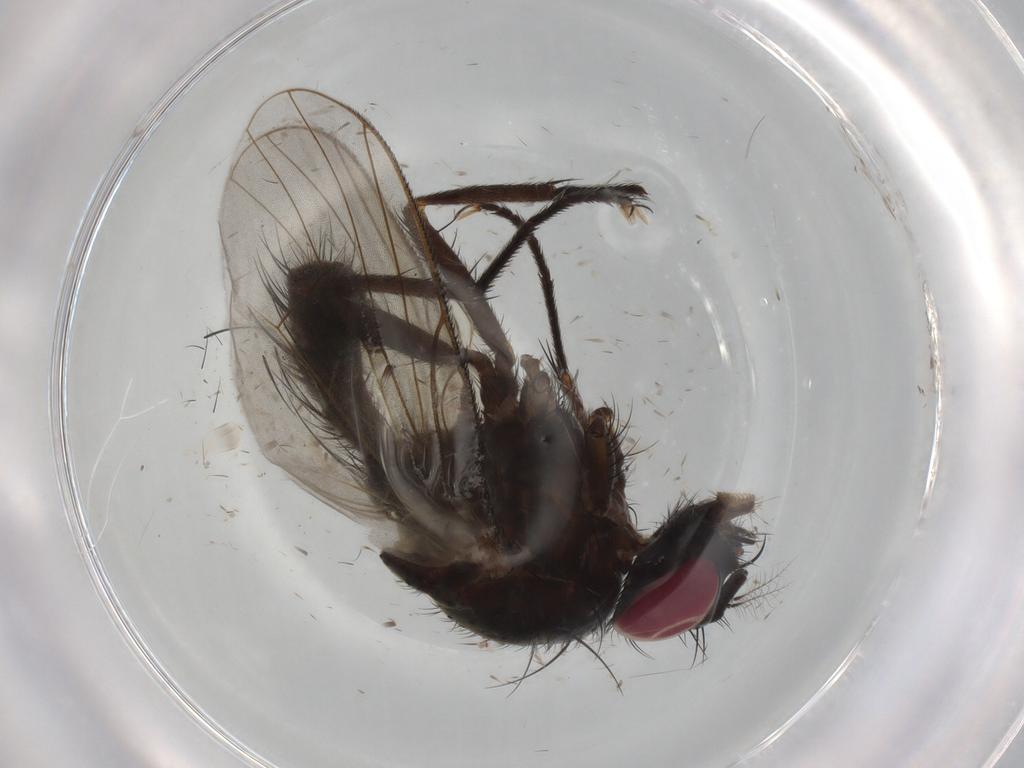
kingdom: Animalia
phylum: Arthropoda
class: Insecta
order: Diptera
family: Muscidae
